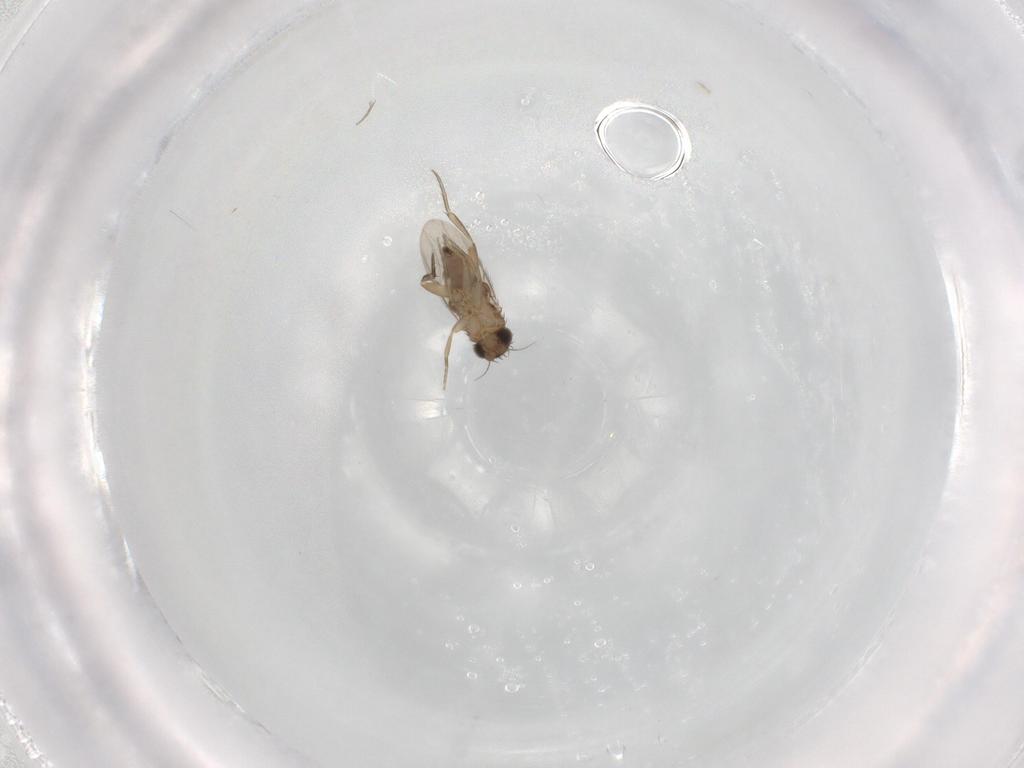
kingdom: Animalia
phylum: Arthropoda
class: Insecta
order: Diptera
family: Phoridae
